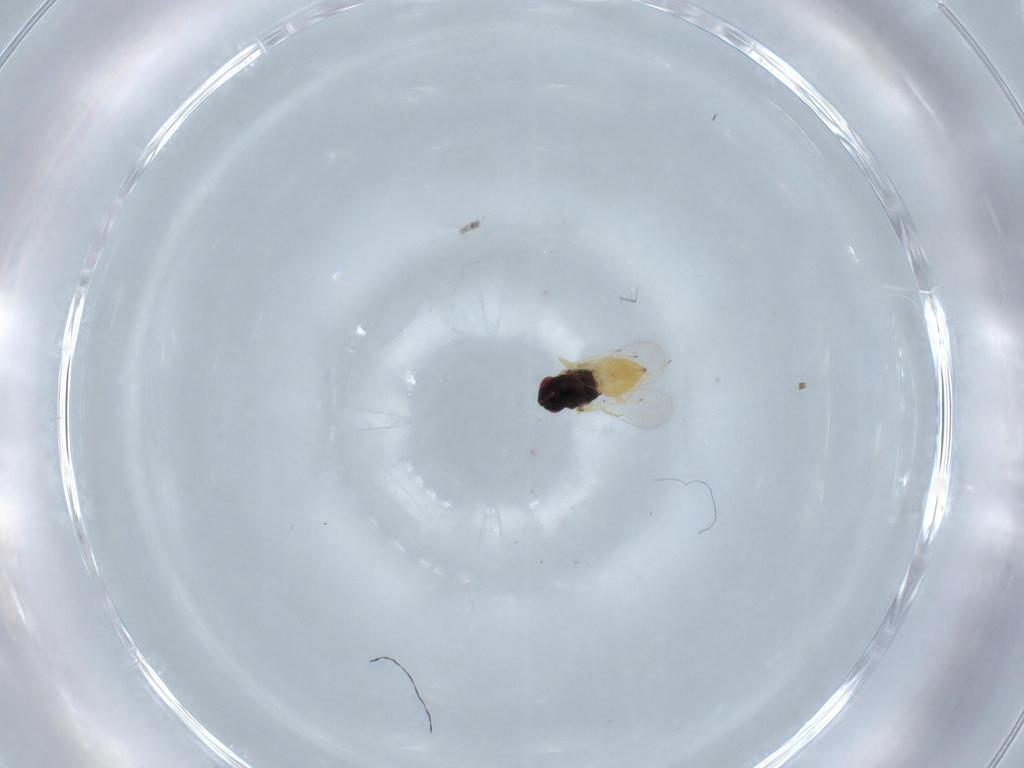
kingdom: Animalia
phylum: Arthropoda
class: Insecta
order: Hymenoptera
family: Eulophidae
